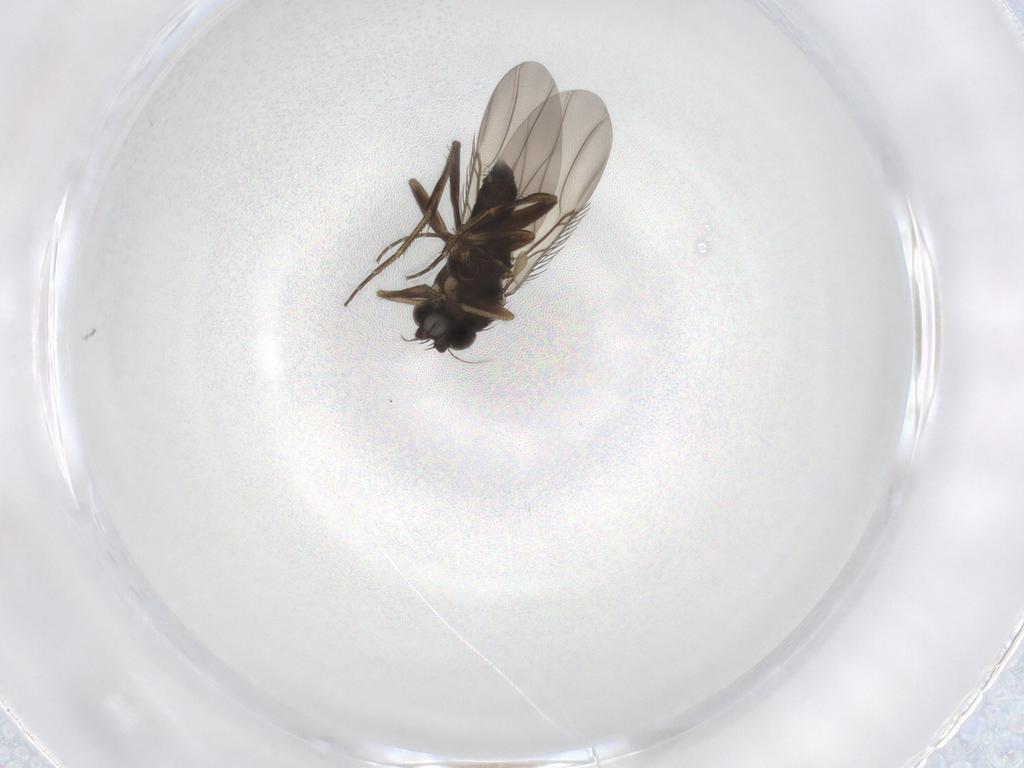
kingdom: Animalia
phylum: Arthropoda
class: Insecta
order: Diptera
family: Phoridae
